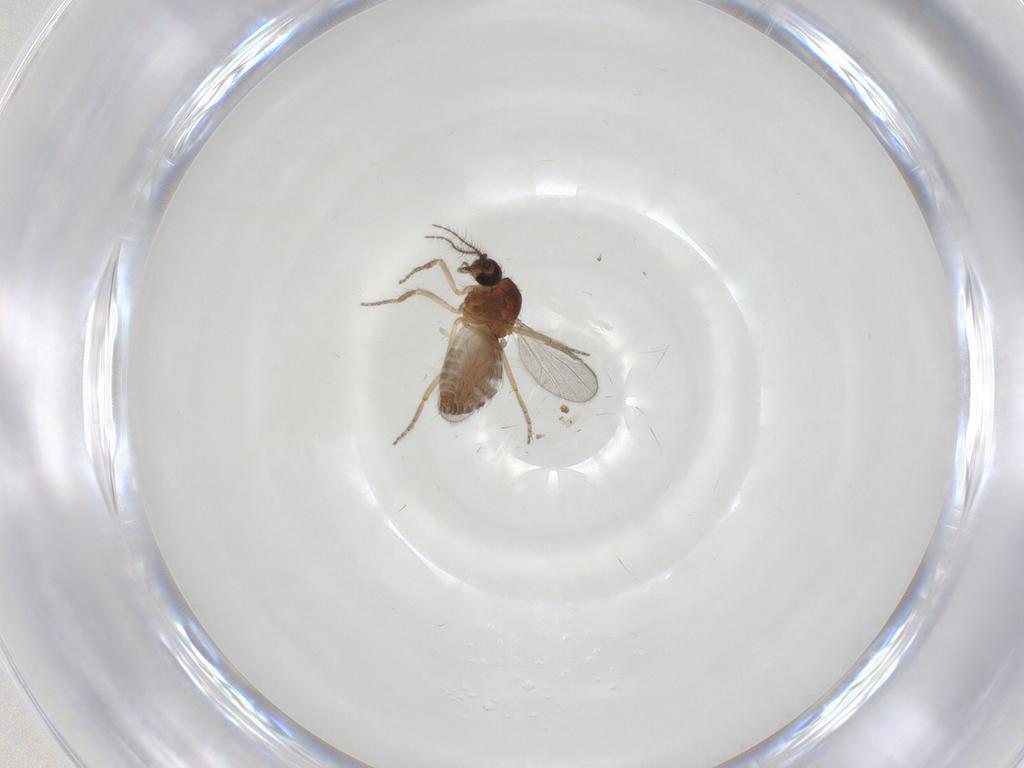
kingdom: Animalia
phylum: Arthropoda
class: Insecta
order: Diptera
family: Ceratopogonidae
